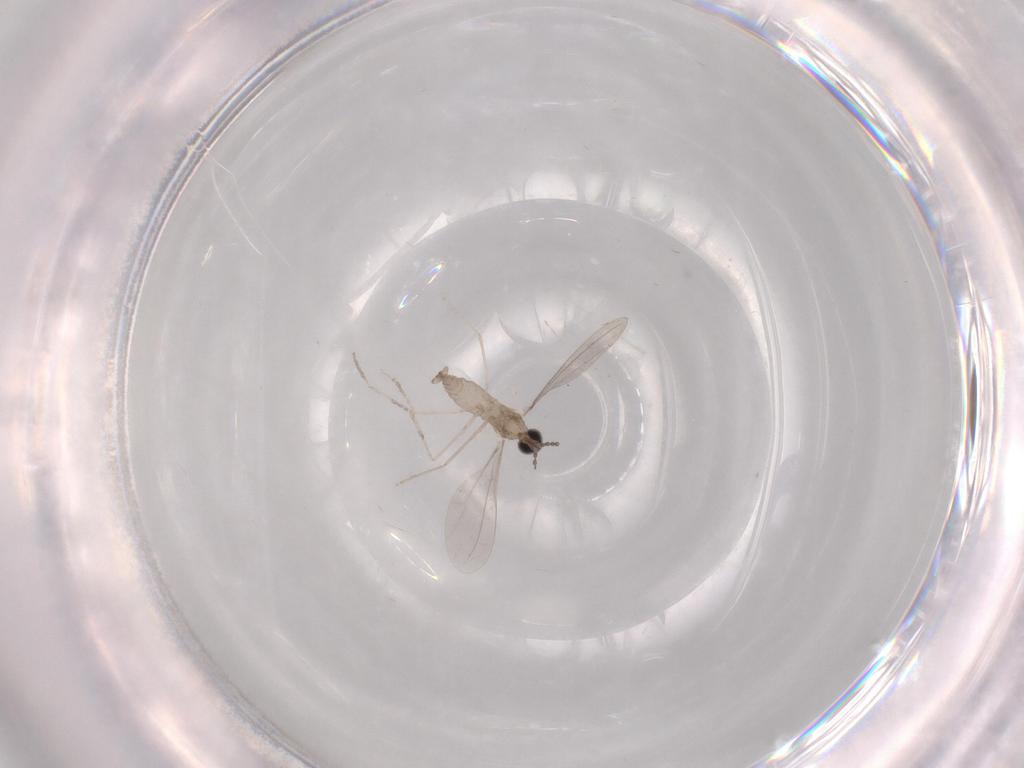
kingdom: Animalia
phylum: Arthropoda
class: Insecta
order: Diptera
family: Cecidomyiidae
